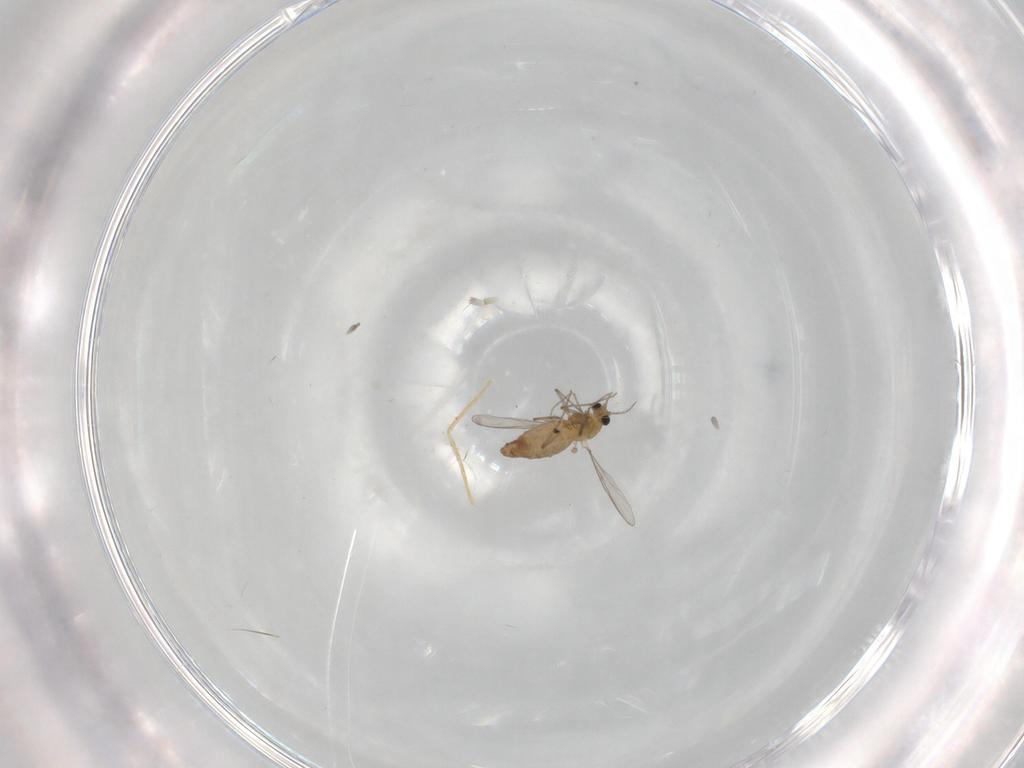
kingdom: Animalia
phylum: Arthropoda
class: Insecta
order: Diptera
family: Chironomidae
